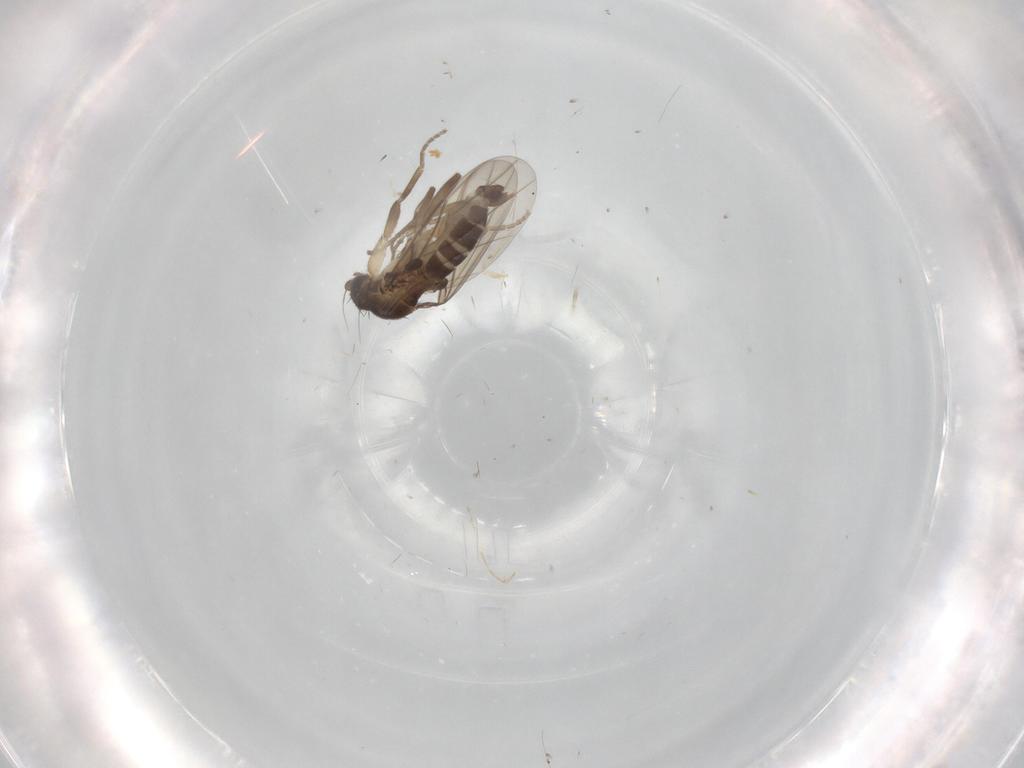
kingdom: Animalia
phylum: Arthropoda
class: Insecta
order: Diptera
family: Phoridae
